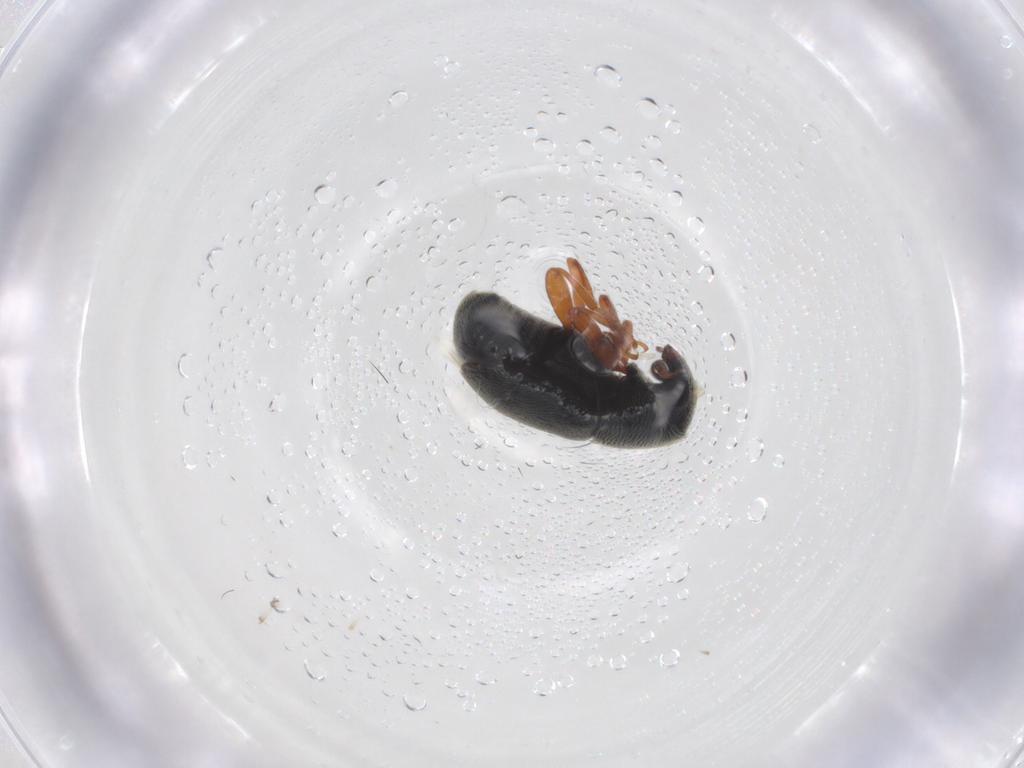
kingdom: Animalia
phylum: Arthropoda
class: Insecta
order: Coleoptera
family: Anthribidae
